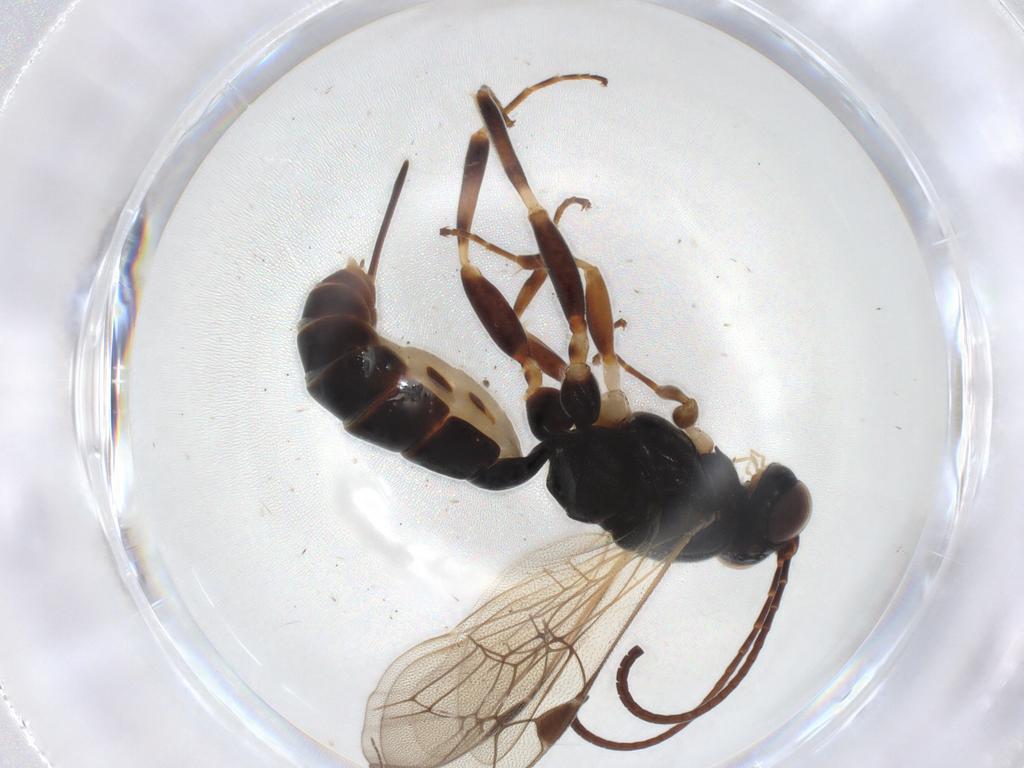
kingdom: Animalia
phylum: Arthropoda
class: Insecta
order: Hymenoptera
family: Ichneumonidae
